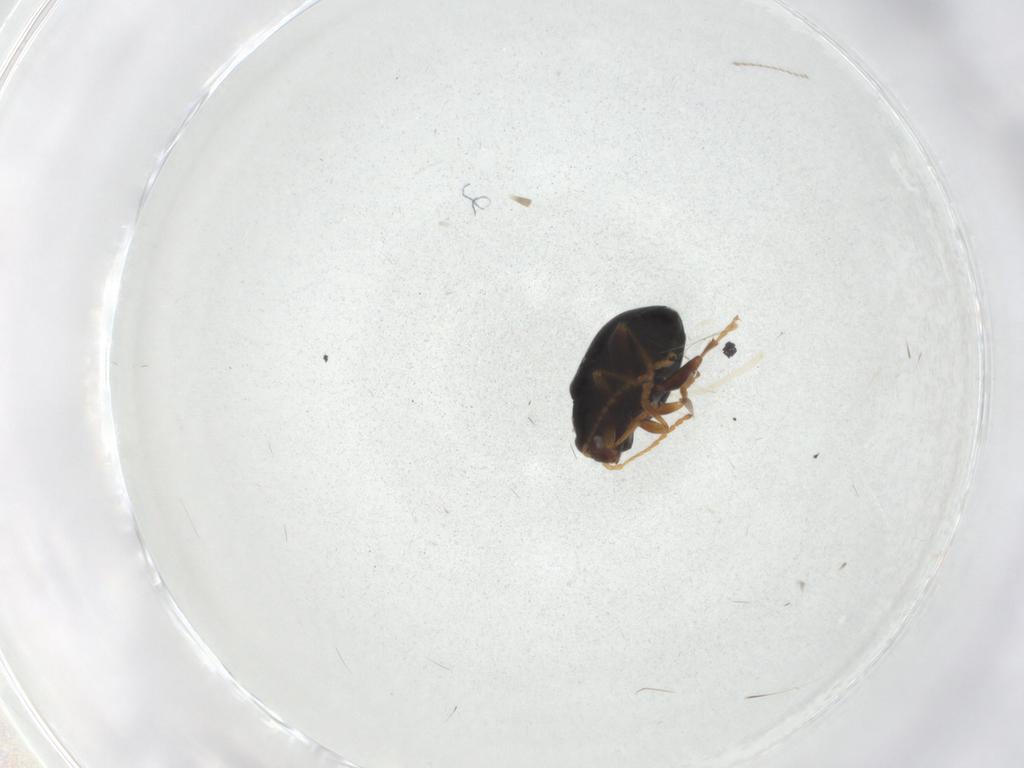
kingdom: Animalia
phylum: Arthropoda
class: Insecta
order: Coleoptera
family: Chrysomelidae
